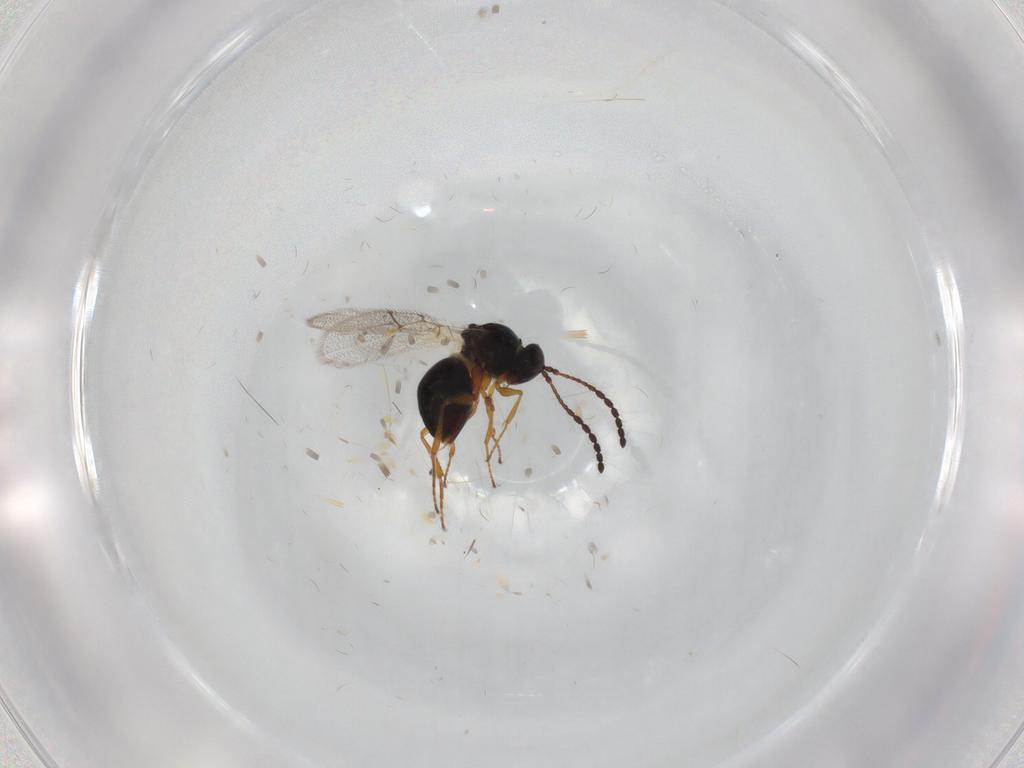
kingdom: Animalia
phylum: Arthropoda
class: Insecta
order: Hymenoptera
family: Figitidae
